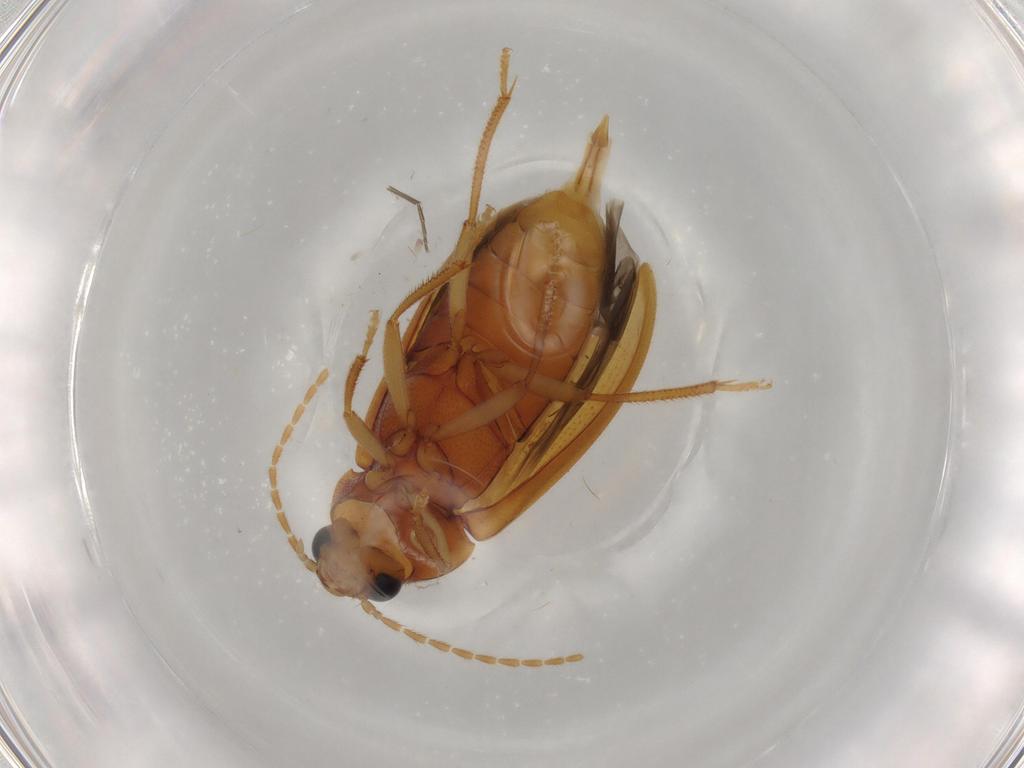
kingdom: Animalia
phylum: Arthropoda
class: Insecta
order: Coleoptera
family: Ptilodactylidae
